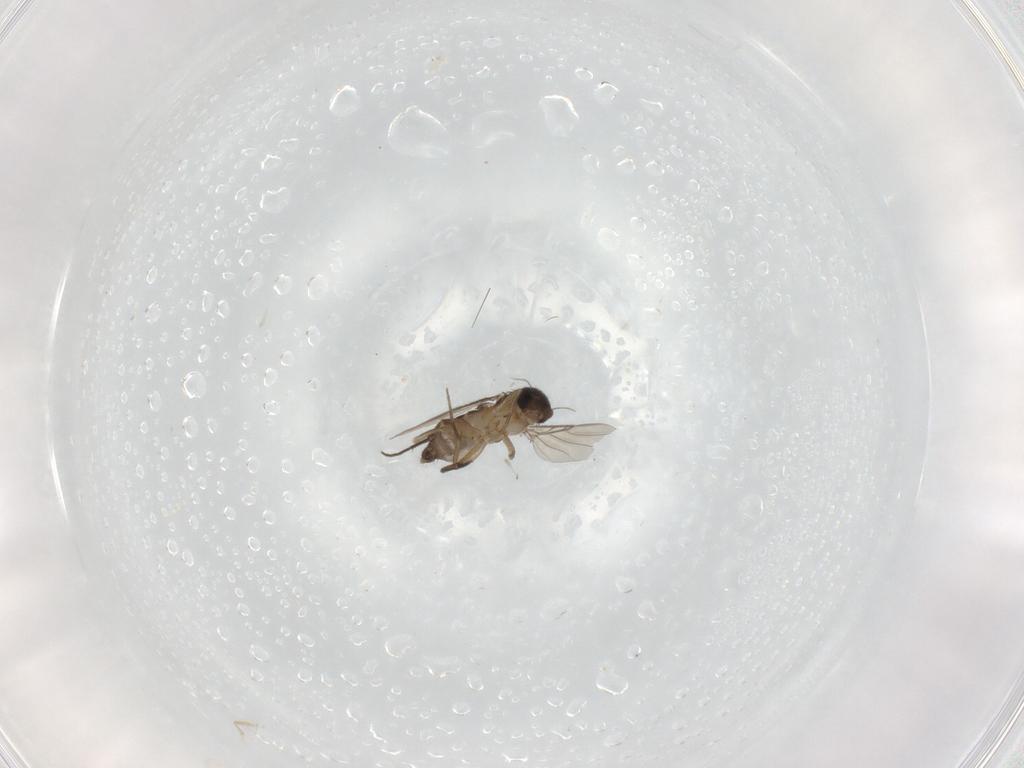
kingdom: Animalia
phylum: Arthropoda
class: Insecta
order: Diptera
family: Phoridae
